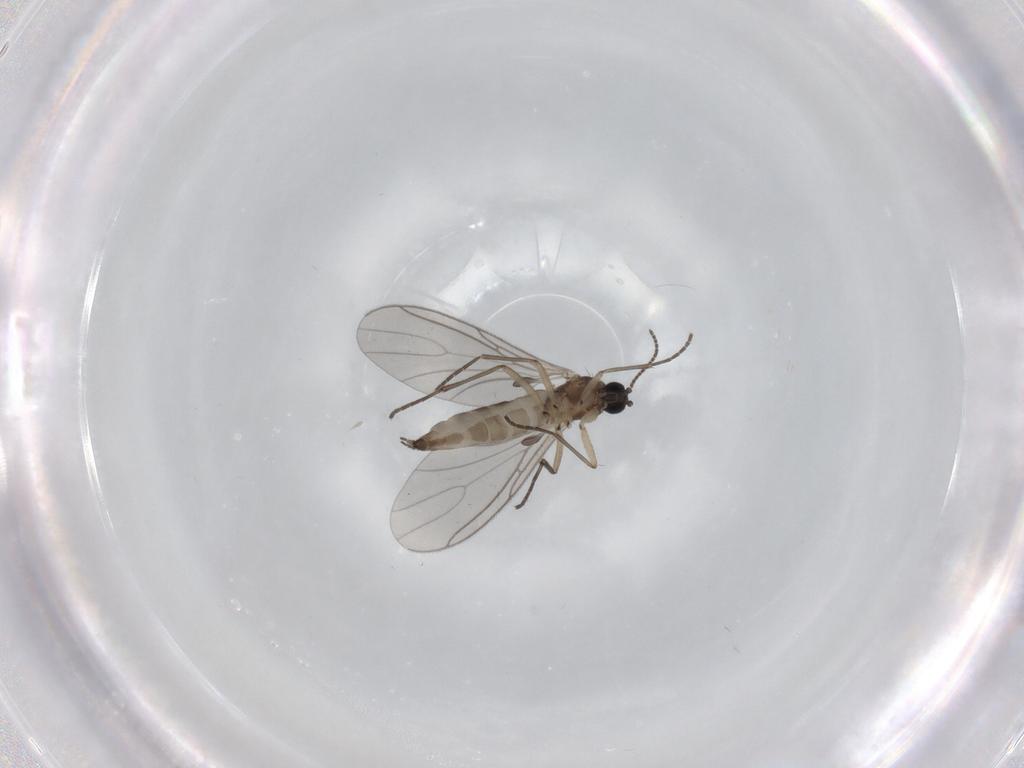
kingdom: Animalia
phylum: Arthropoda
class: Insecta
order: Diptera
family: Sciaridae
